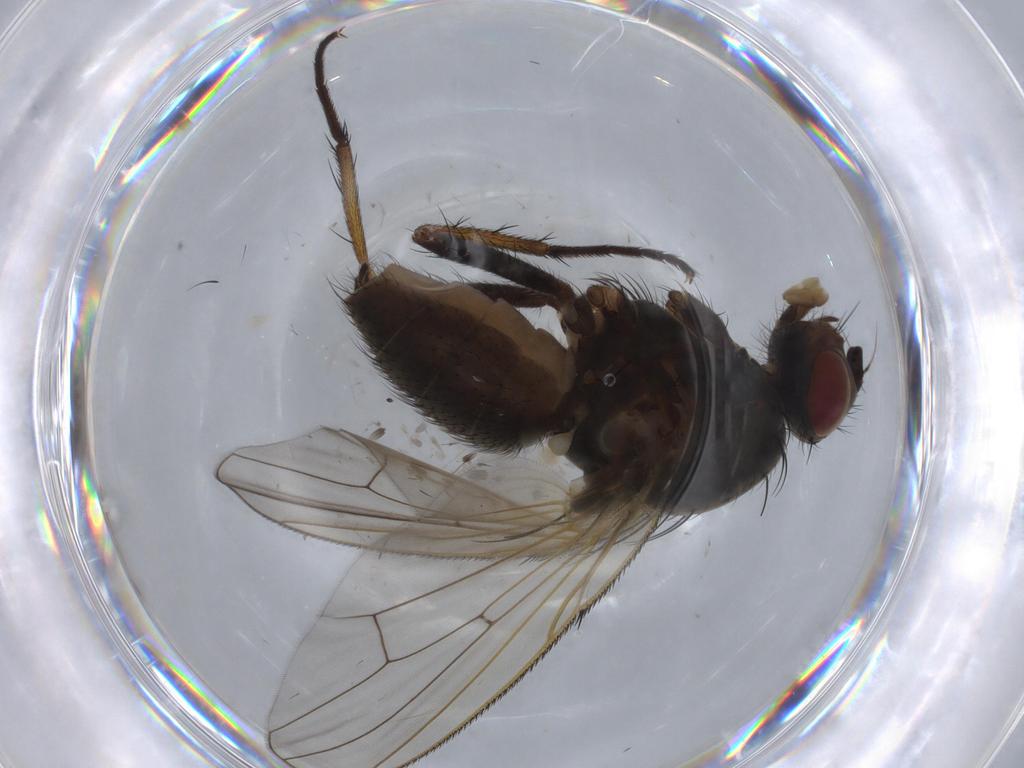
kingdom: Animalia
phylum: Arthropoda
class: Insecta
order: Diptera
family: Anthomyiidae
